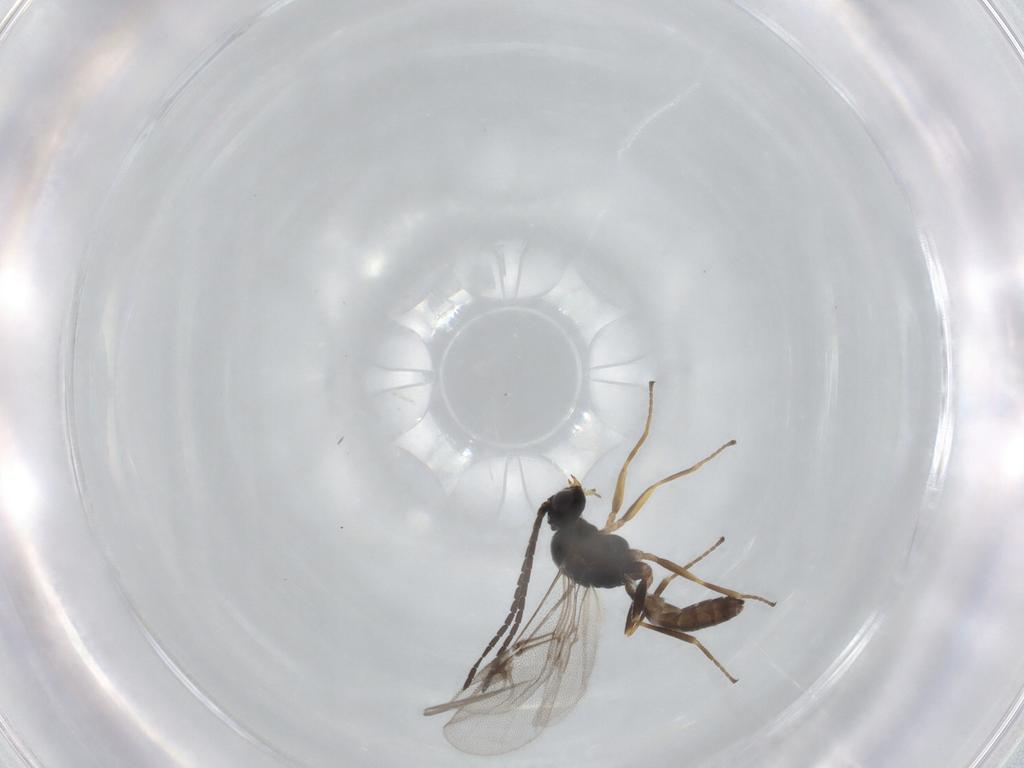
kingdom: Animalia
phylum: Arthropoda
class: Insecta
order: Hymenoptera
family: Braconidae
